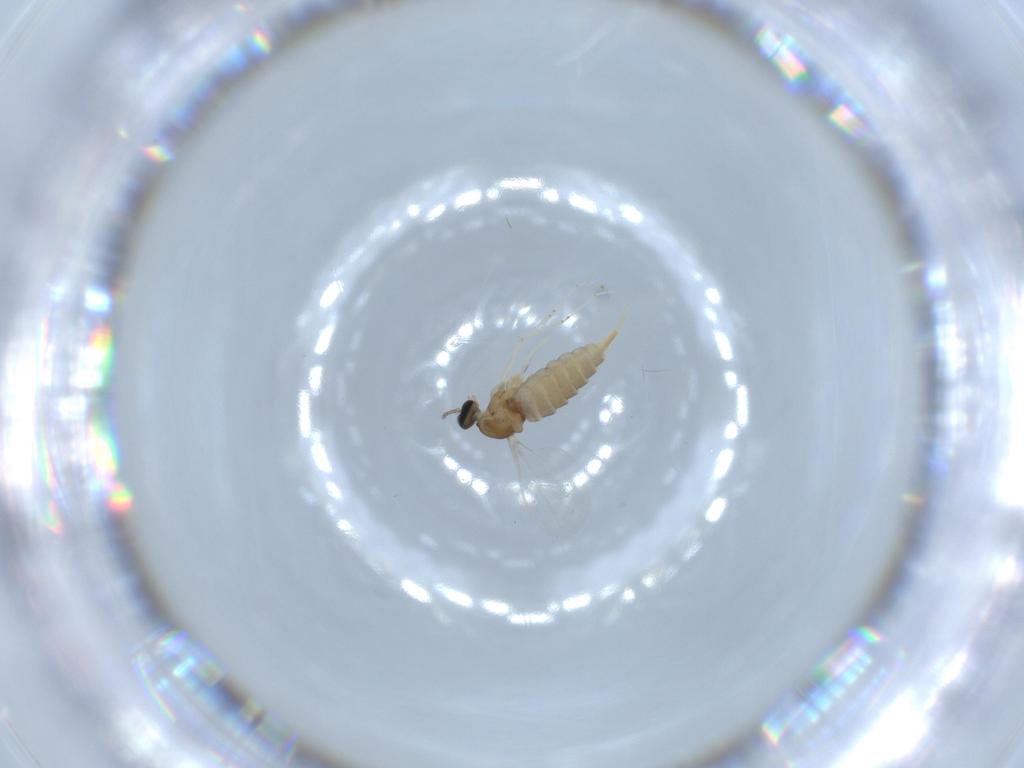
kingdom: Animalia
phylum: Arthropoda
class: Insecta
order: Diptera
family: Cecidomyiidae
